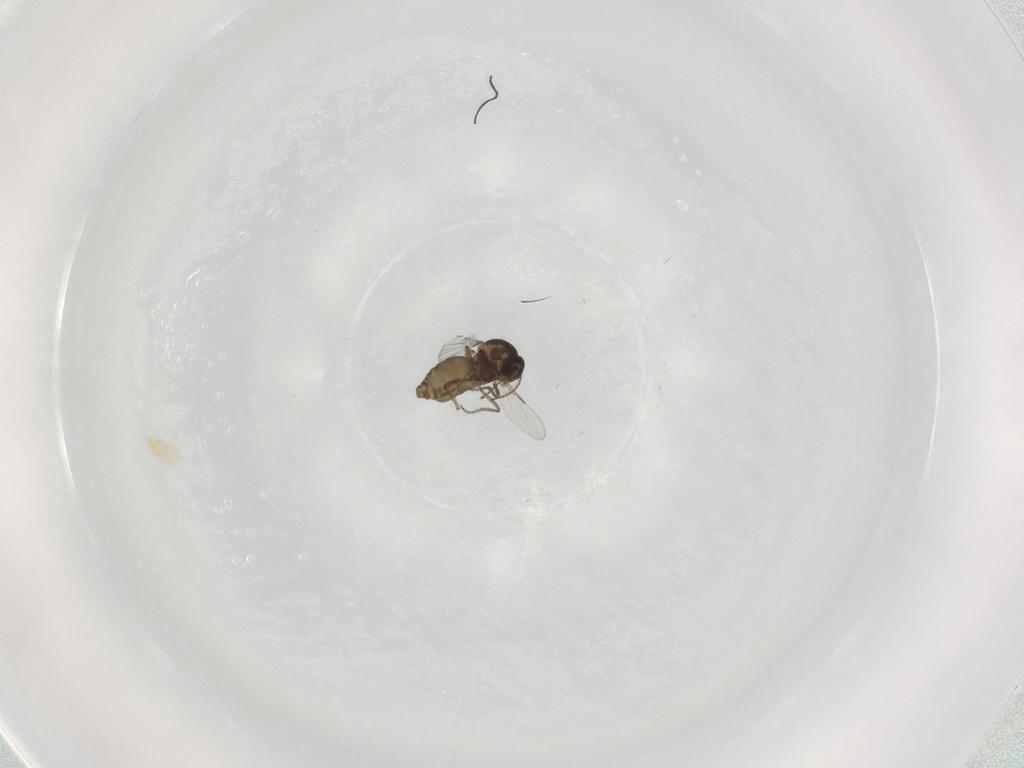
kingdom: Animalia
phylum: Arthropoda
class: Insecta
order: Diptera
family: Ceratopogonidae
